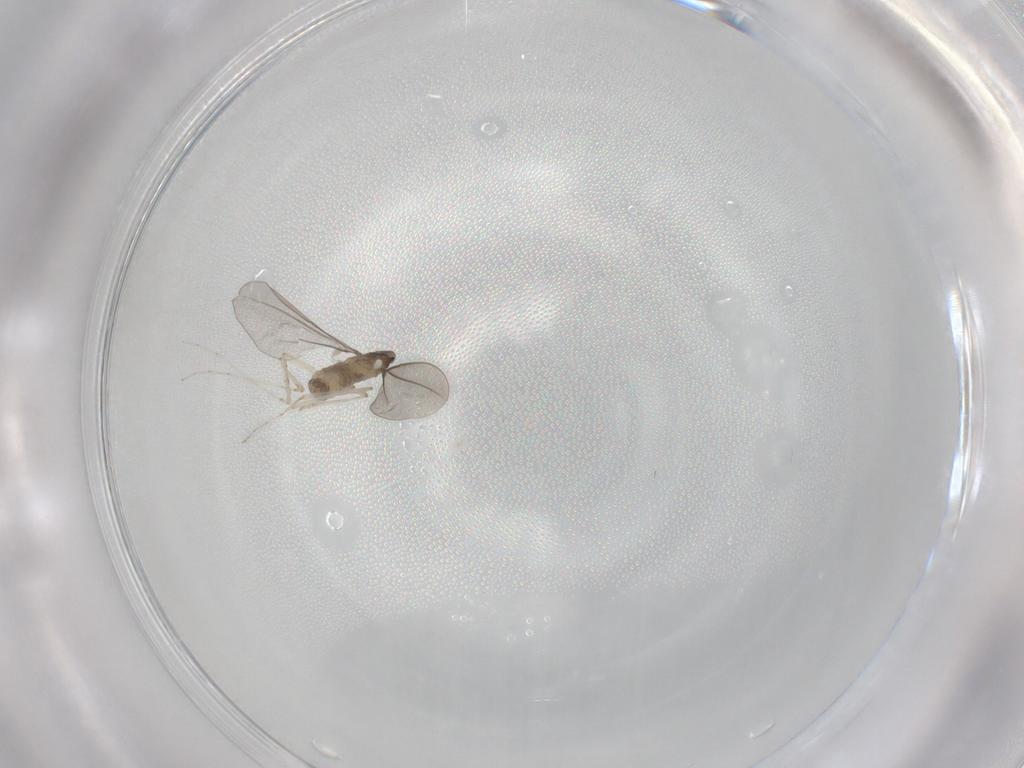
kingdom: Animalia
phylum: Arthropoda
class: Insecta
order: Diptera
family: Cecidomyiidae
